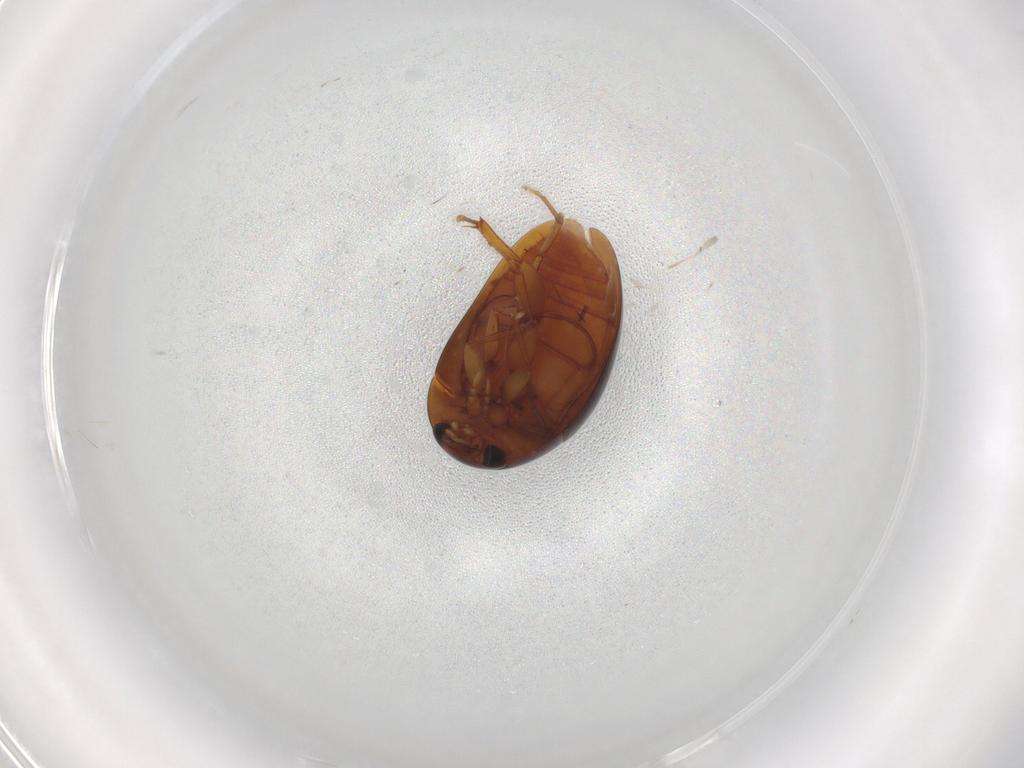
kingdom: Animalia
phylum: Arthropoda
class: Insecta
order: Coleoptera
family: Phalacridae
